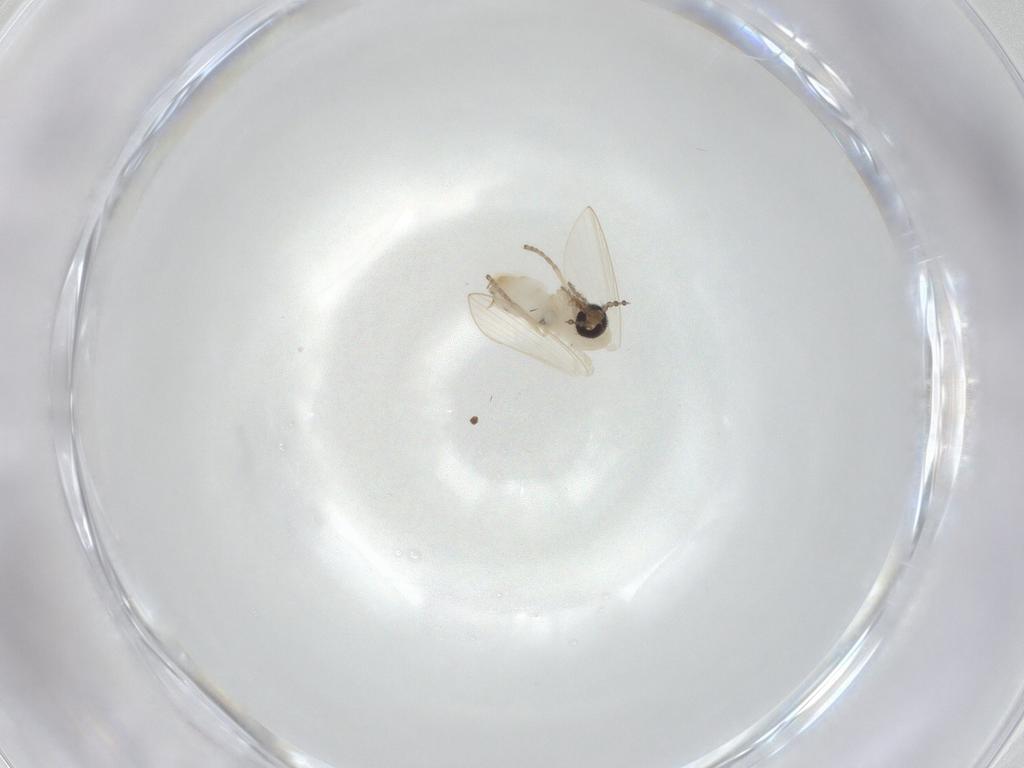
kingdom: Animalia
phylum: Arthropoda
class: Insecta
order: Diptera
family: Psychodidae
